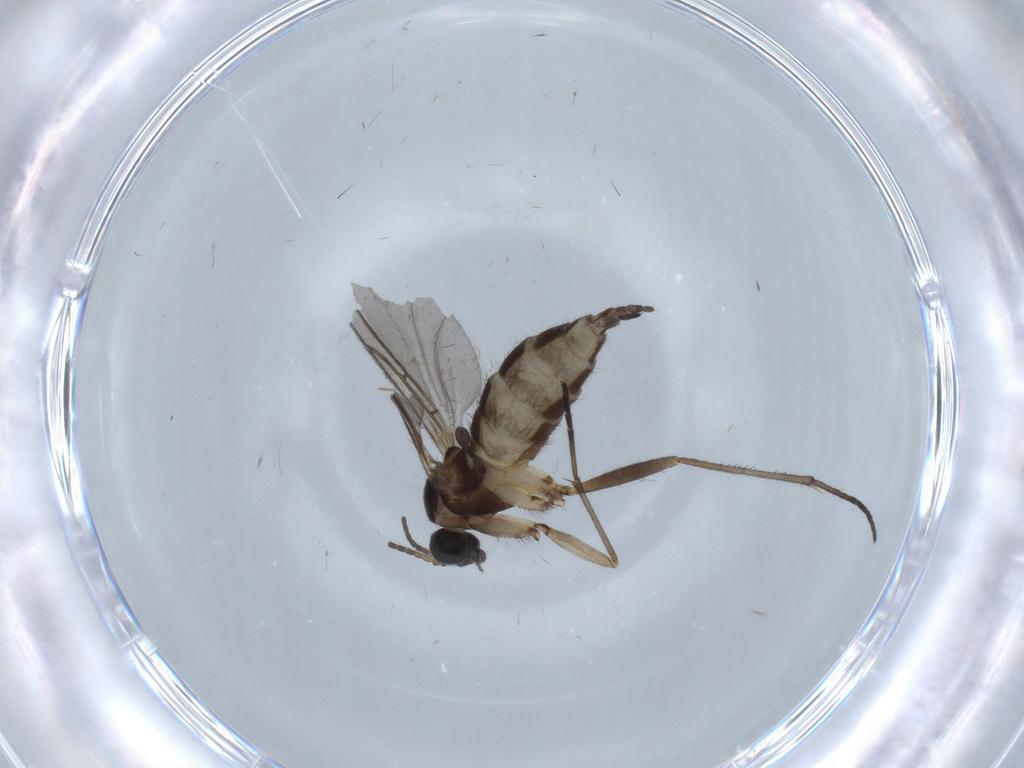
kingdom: Animalia
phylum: Arthropoda
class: Insecta
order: Diptera
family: Sciaridae
